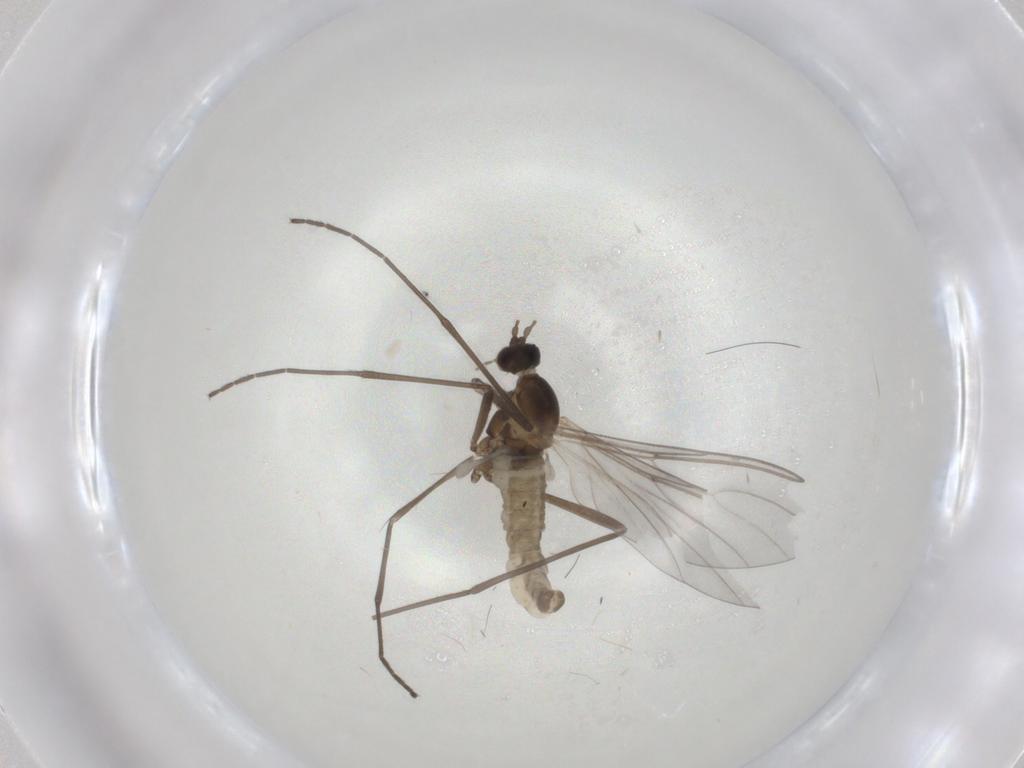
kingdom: Animalia
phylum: Arthropoda
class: Insecta
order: Diptera
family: Cecidomyiidae
